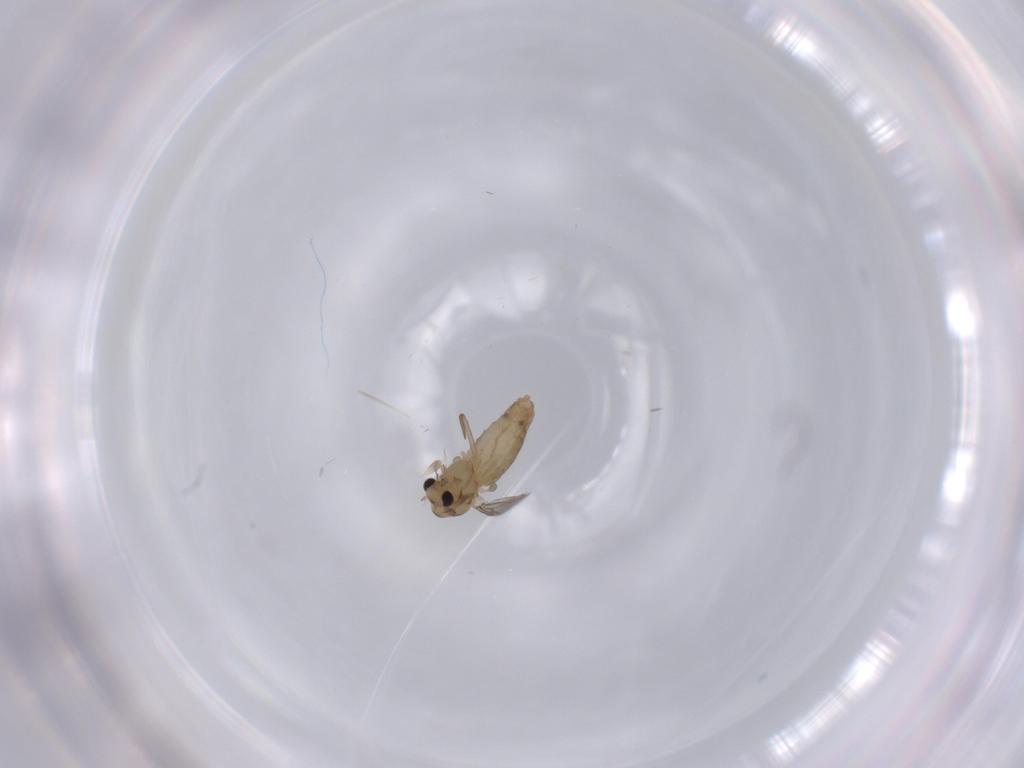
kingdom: Animalia
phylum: Arthropoda
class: Insecta
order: Diptera
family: Chironomidae
